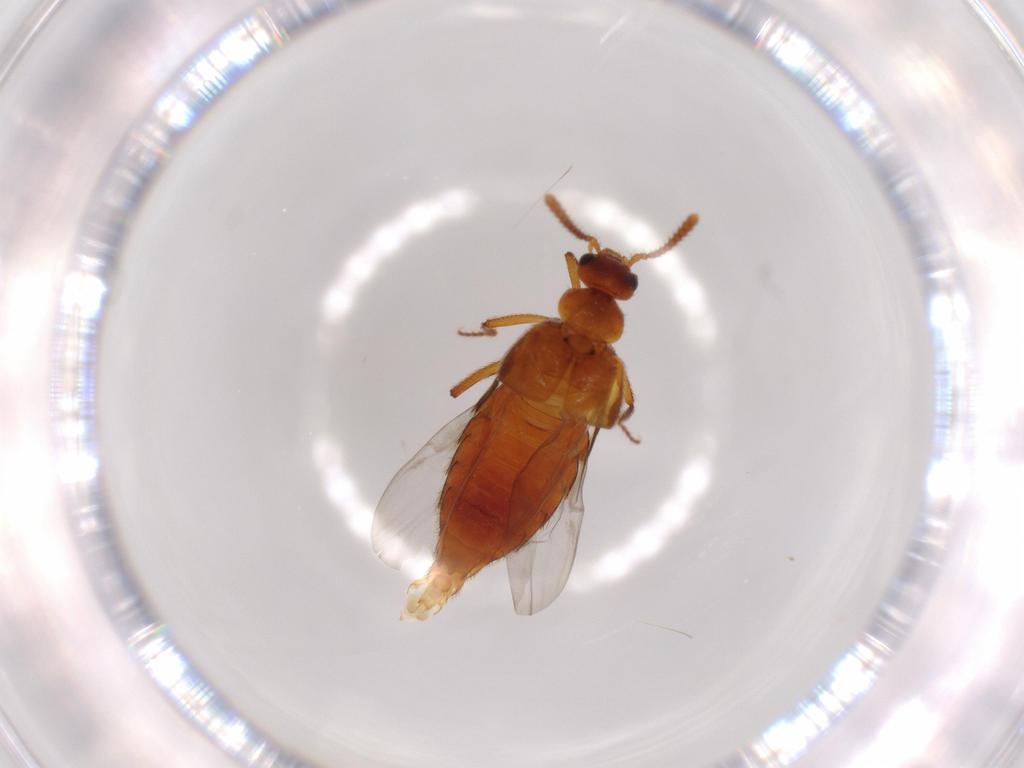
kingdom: Animalia
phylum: Arthropoda
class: Insecta
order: Coleoptera
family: Staphylinidae
